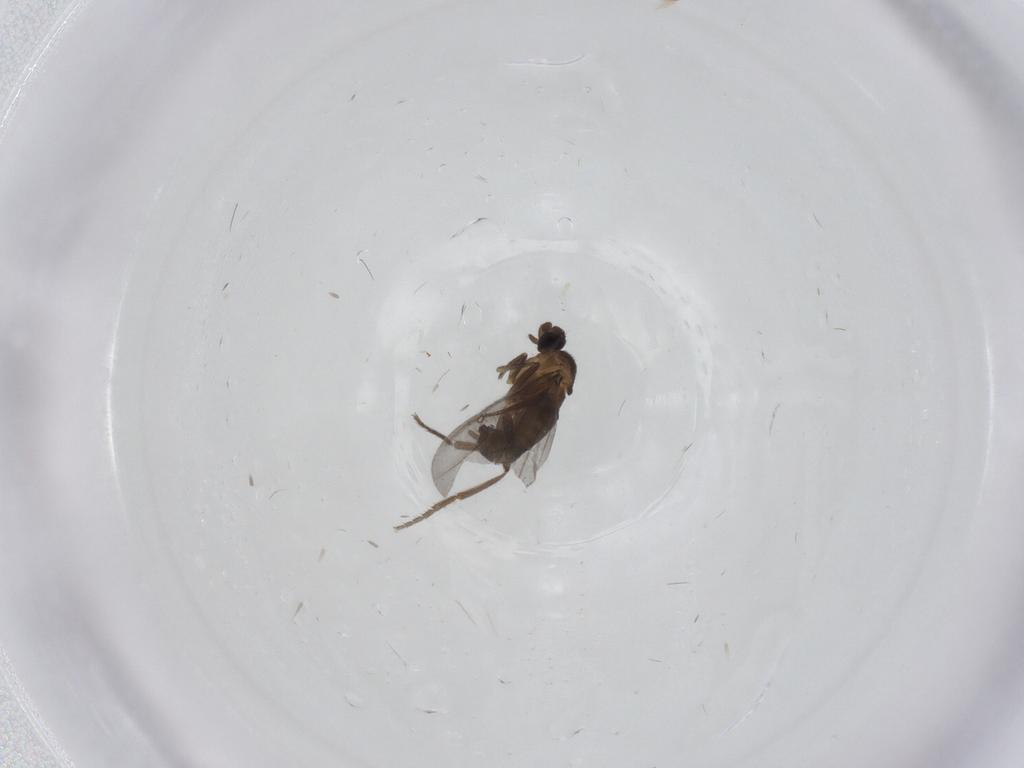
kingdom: Animalia
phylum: Arthropoda
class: Insecta
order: Diptera
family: Phoridae
